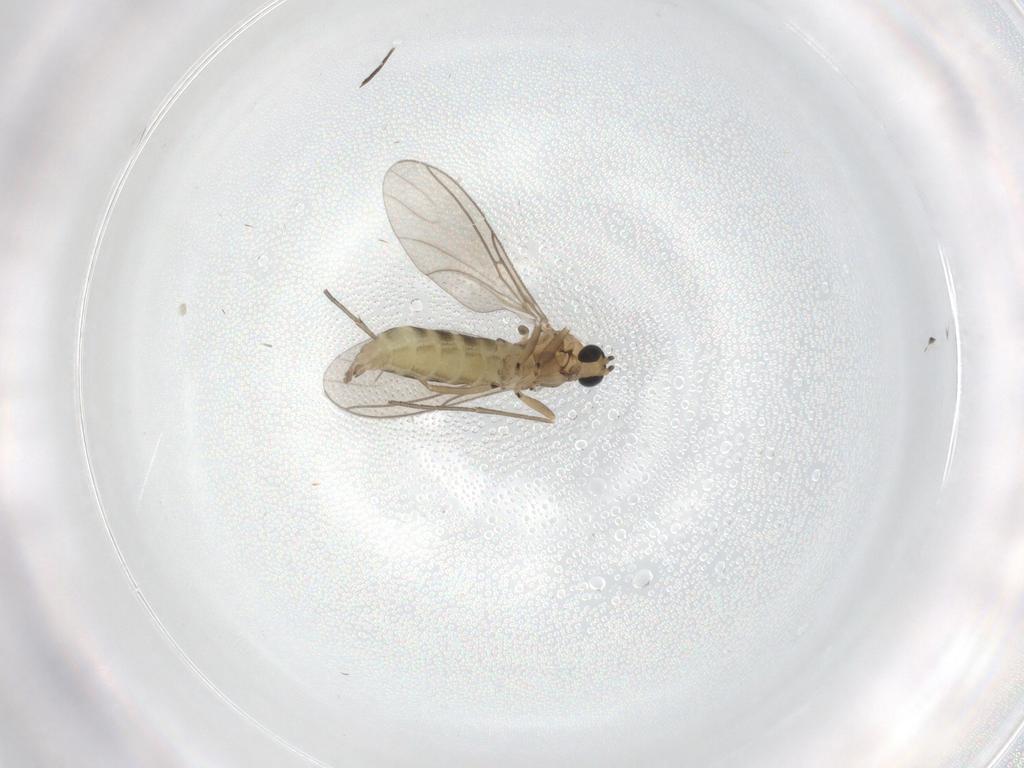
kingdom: Animalia
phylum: Arthropoda
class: Insecta
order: Diptera
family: Sciaridae
